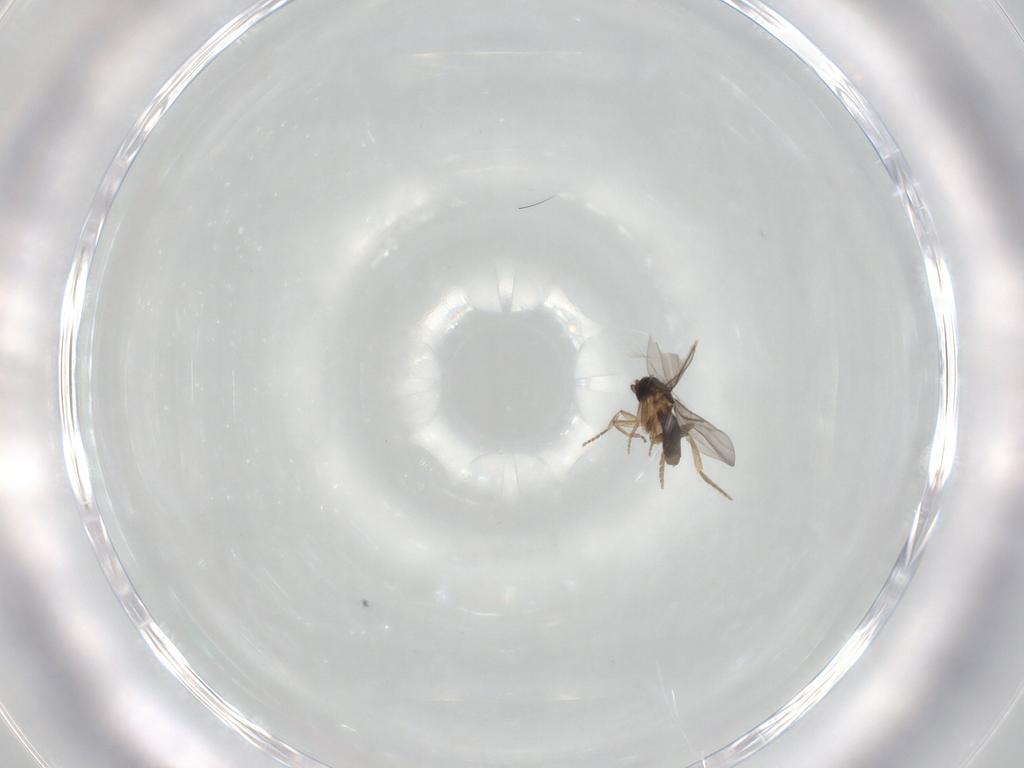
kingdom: Animalia
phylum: Arthropoda
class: Insecta
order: Diptera
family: Phoridae
